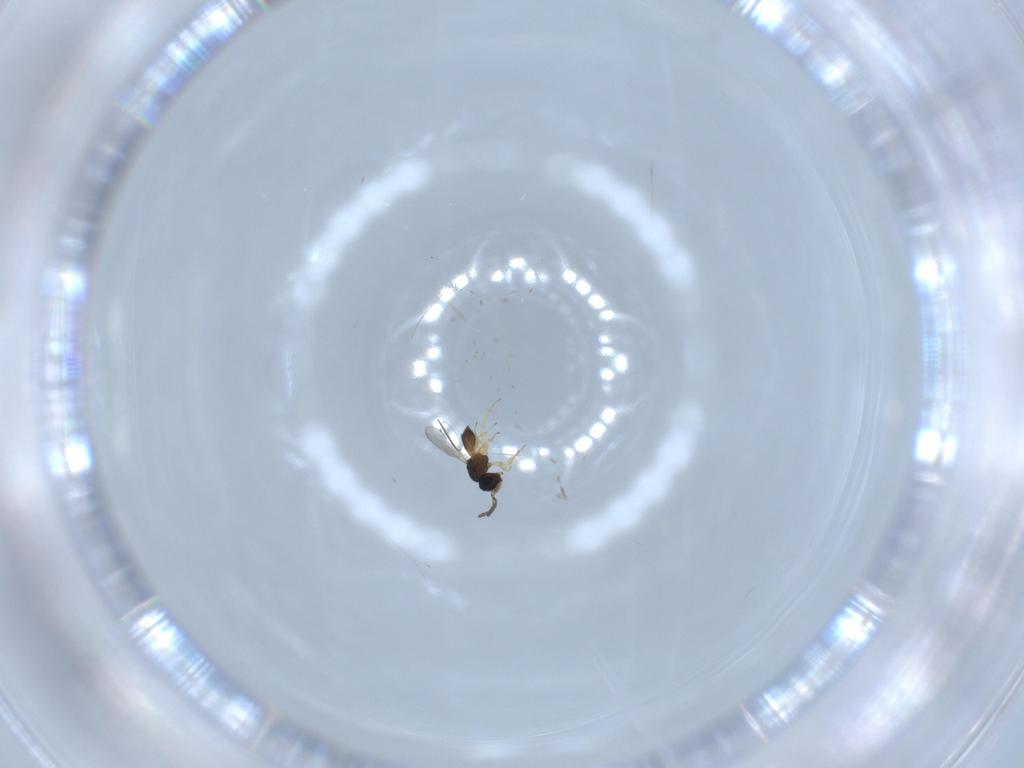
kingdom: Animalia
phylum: Arthropoda
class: Insecta
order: Hymenoptera
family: Scelionidae
